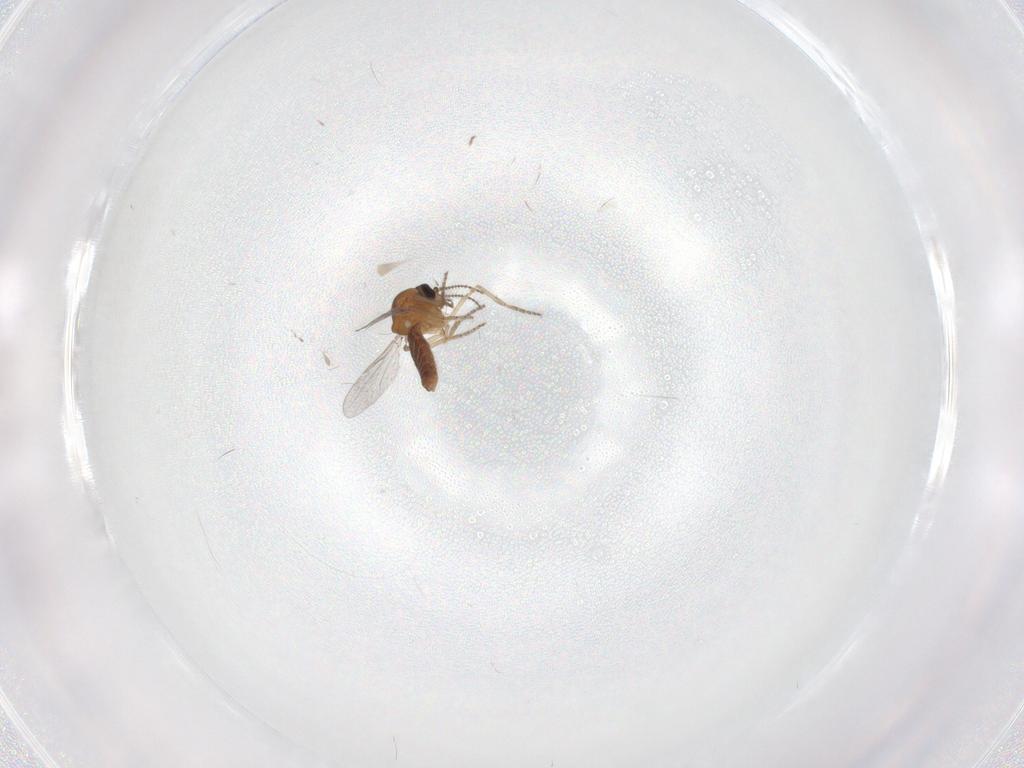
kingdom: Animalia
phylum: Arthropoda
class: Insecta
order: Diptera
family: Ceratopogonidae
